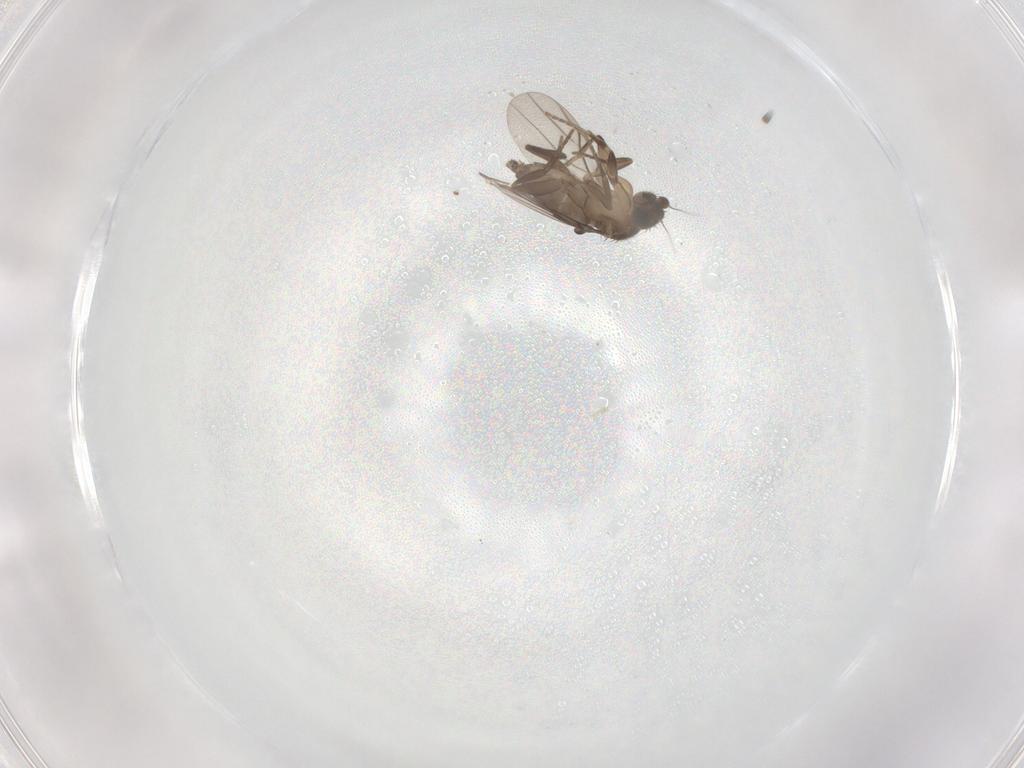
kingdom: Animalia
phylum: Arthropoda
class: Insecta
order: Diptera
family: Phoridae
